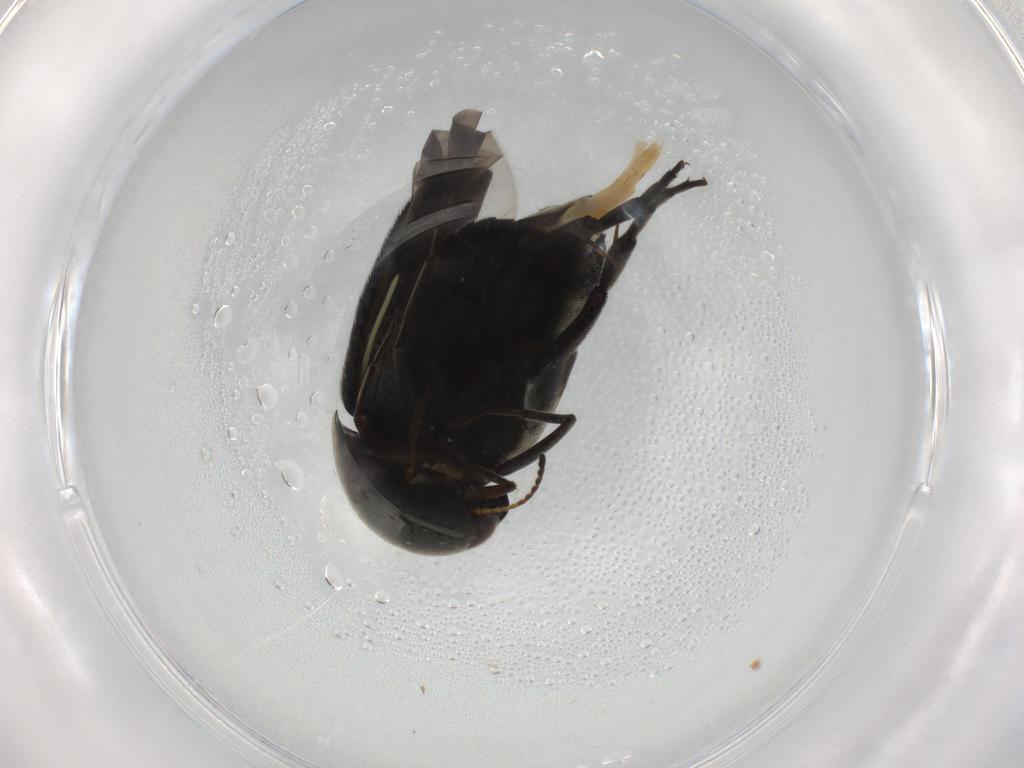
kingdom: Animalia
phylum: Arthropoda
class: Insecta
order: Coleoptera
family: Mordellidae
